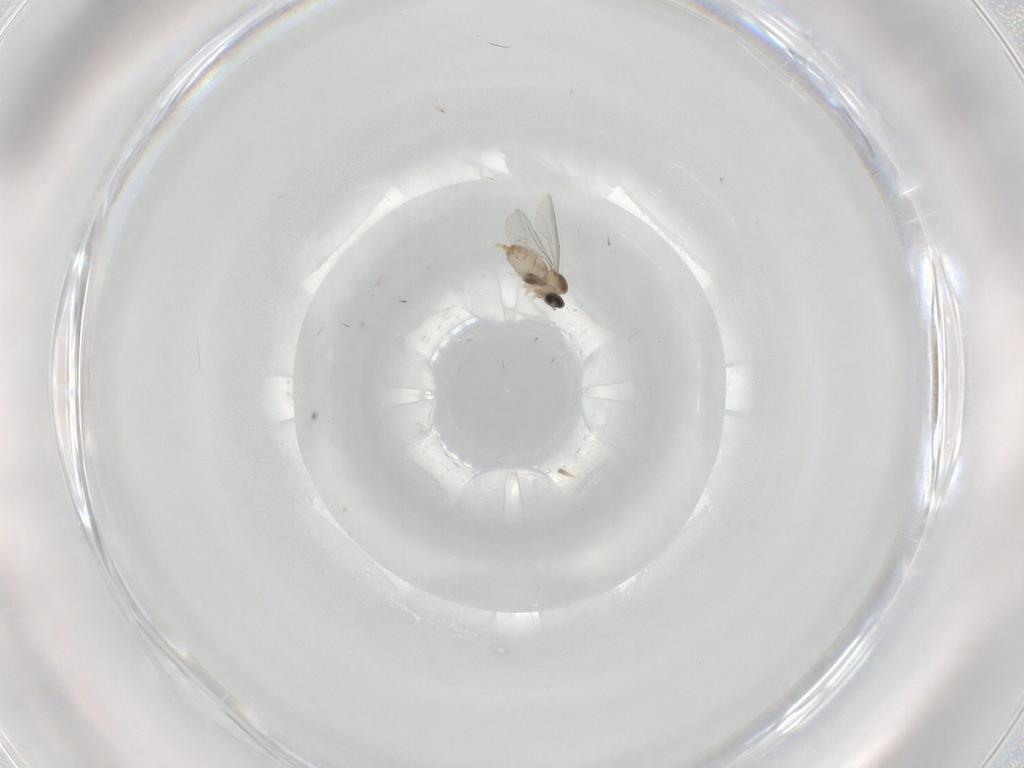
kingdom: Animalia
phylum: Arthropoda
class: Insecta
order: Diptera
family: Cecidomyiidae
